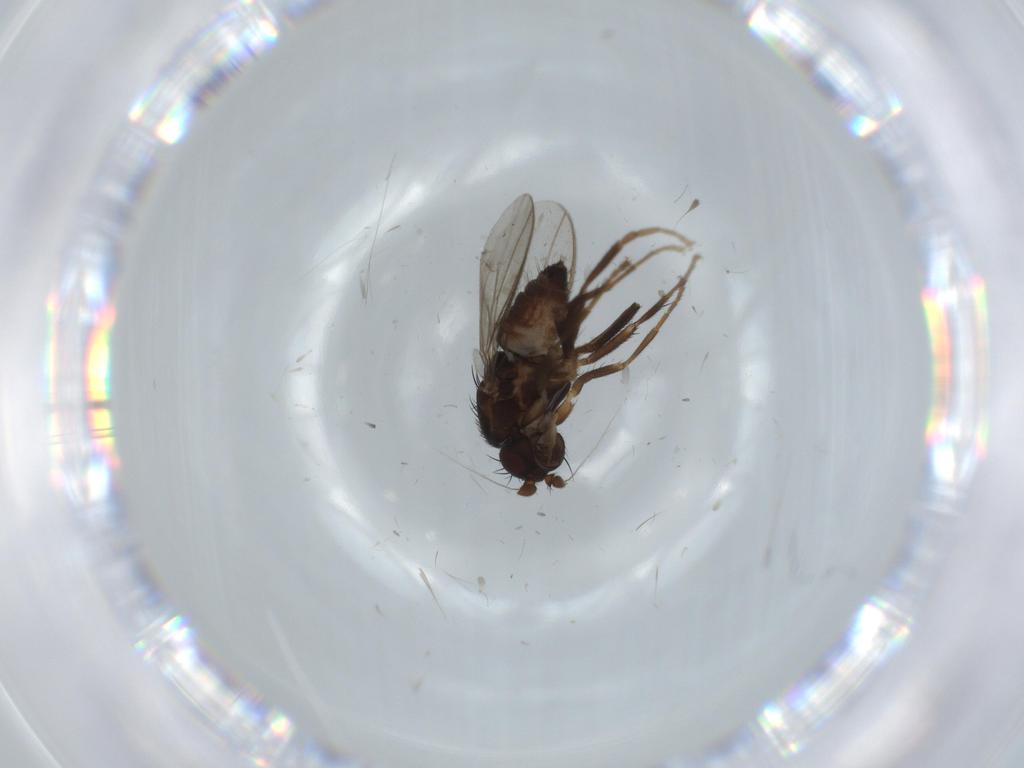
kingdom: Animalia
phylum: Arthropoda
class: Insecta
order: Diptera
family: Sphaeroceridae
